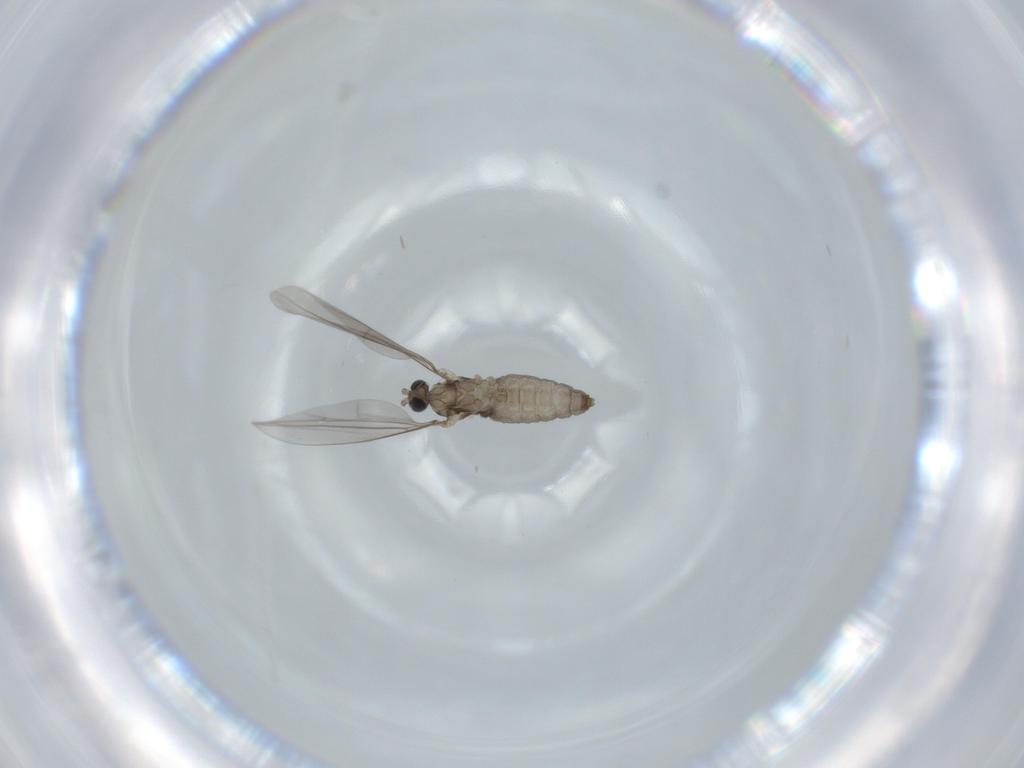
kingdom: Animalia
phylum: Arthropoda
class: Insecta
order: Diptera
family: Cecidomyiidae
